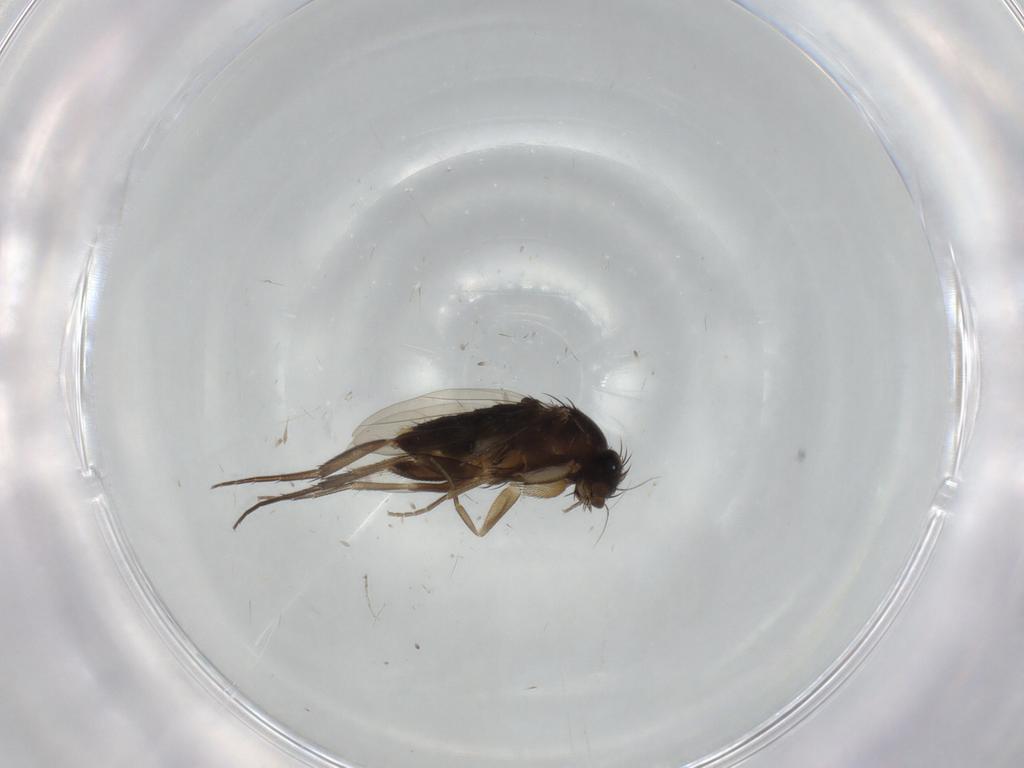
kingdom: Animalia
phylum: Arthropoda
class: Insecta
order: Diptera
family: Phoridae
